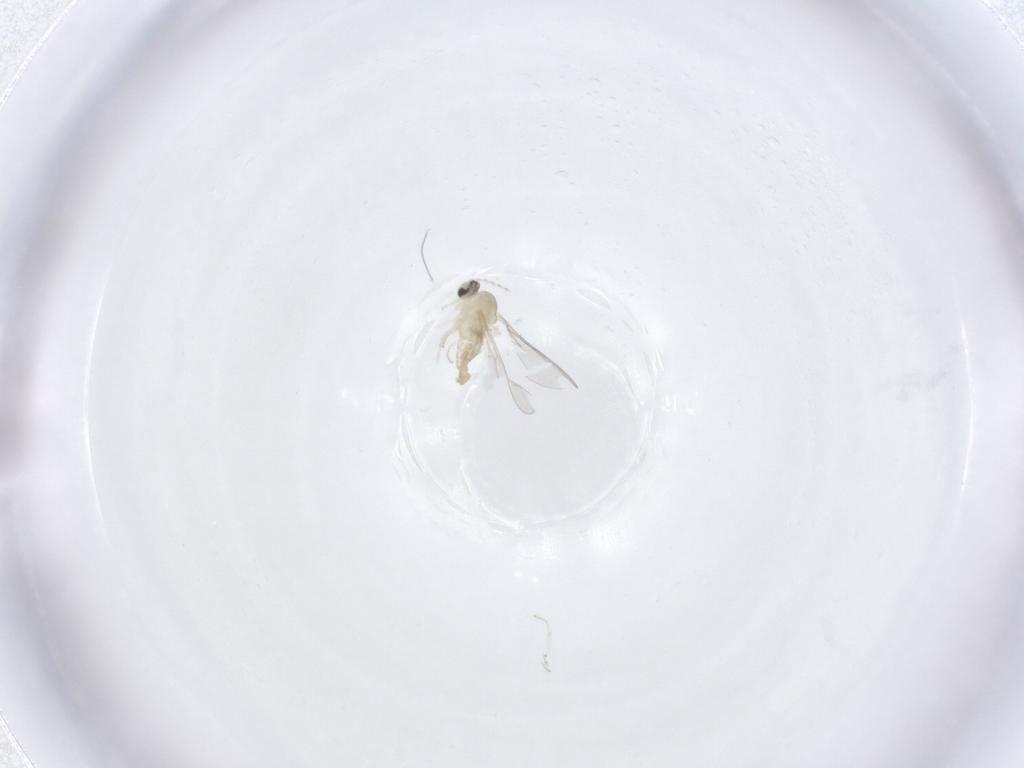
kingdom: Animalia
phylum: Arthropoda
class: Insecta
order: Diptera
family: Cecidomyiidae
